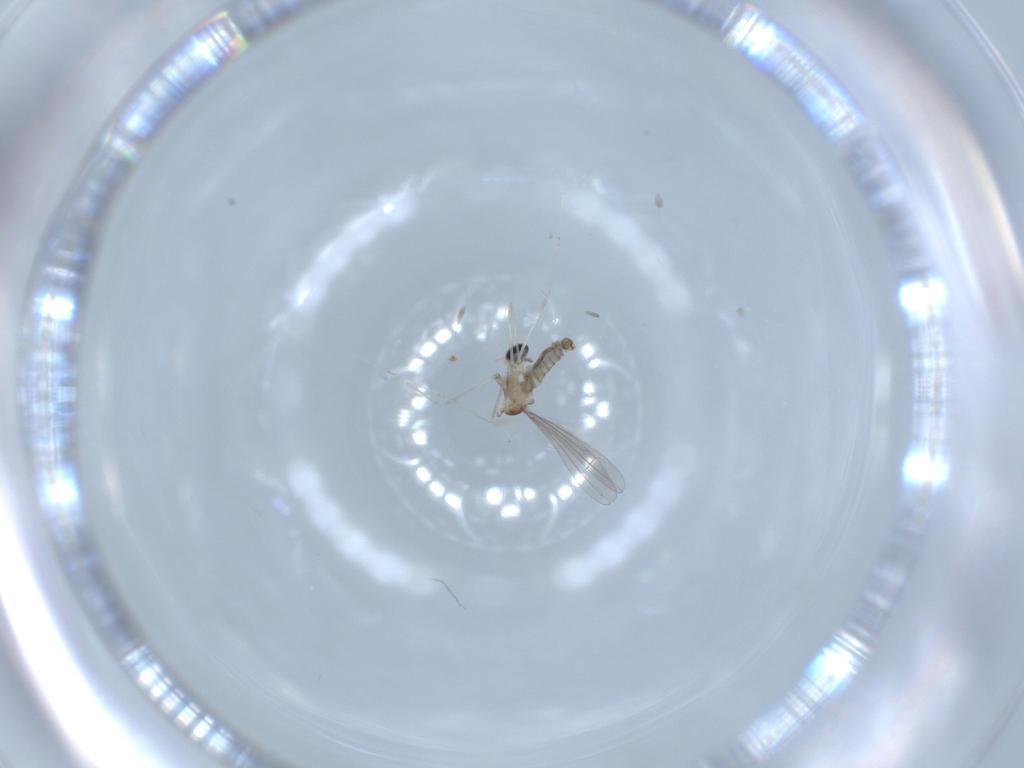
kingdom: Animalia
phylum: Arthropoda
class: Insecta
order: Diptera
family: Cecidomyiidae
